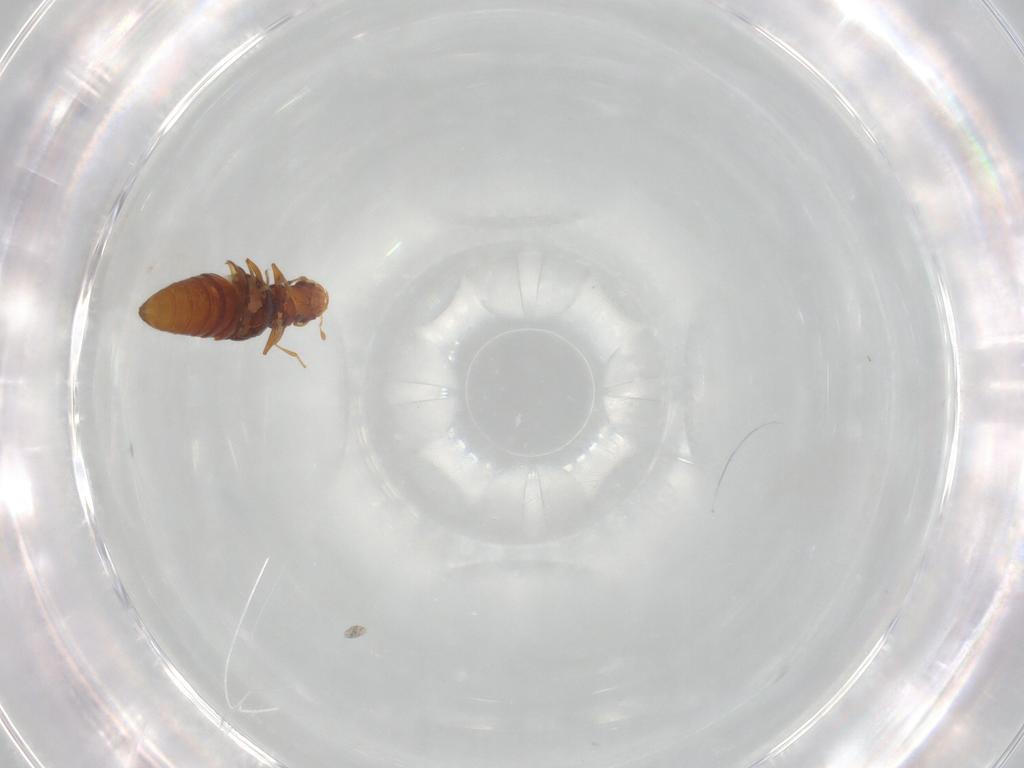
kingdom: Animalia
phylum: Arthropoda
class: Insecta
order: Coleoptera
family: Staphylinidae
